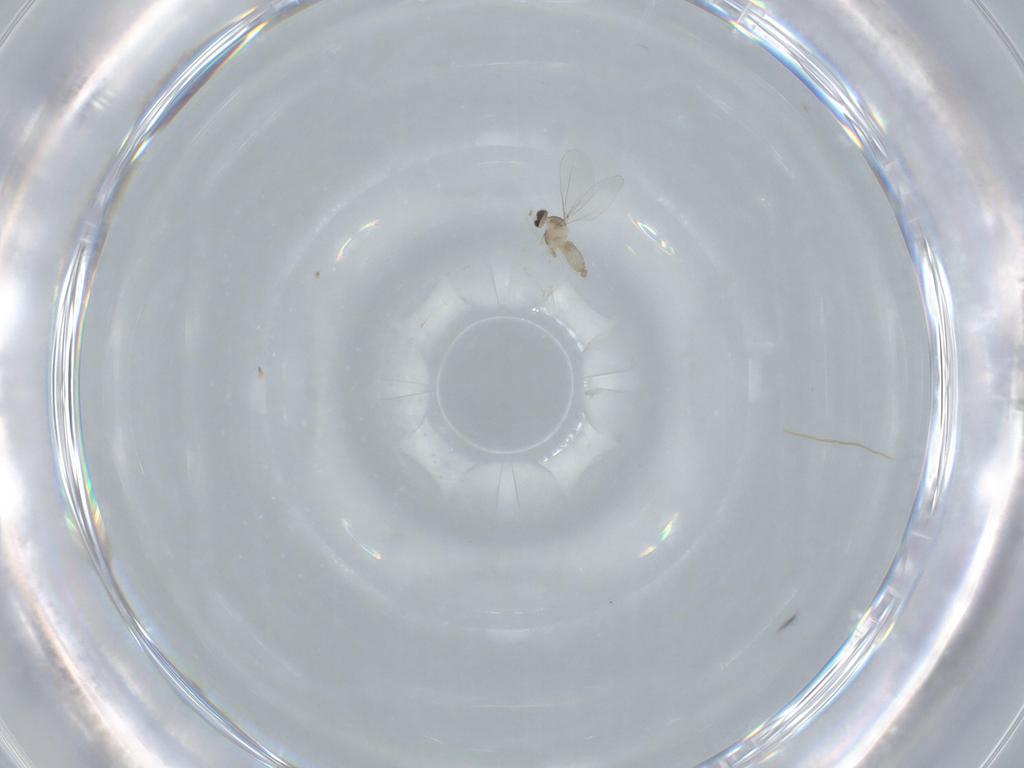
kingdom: Animalia
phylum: Arthropoda
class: Insecta
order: Diptera
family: Cecidomyiidae
